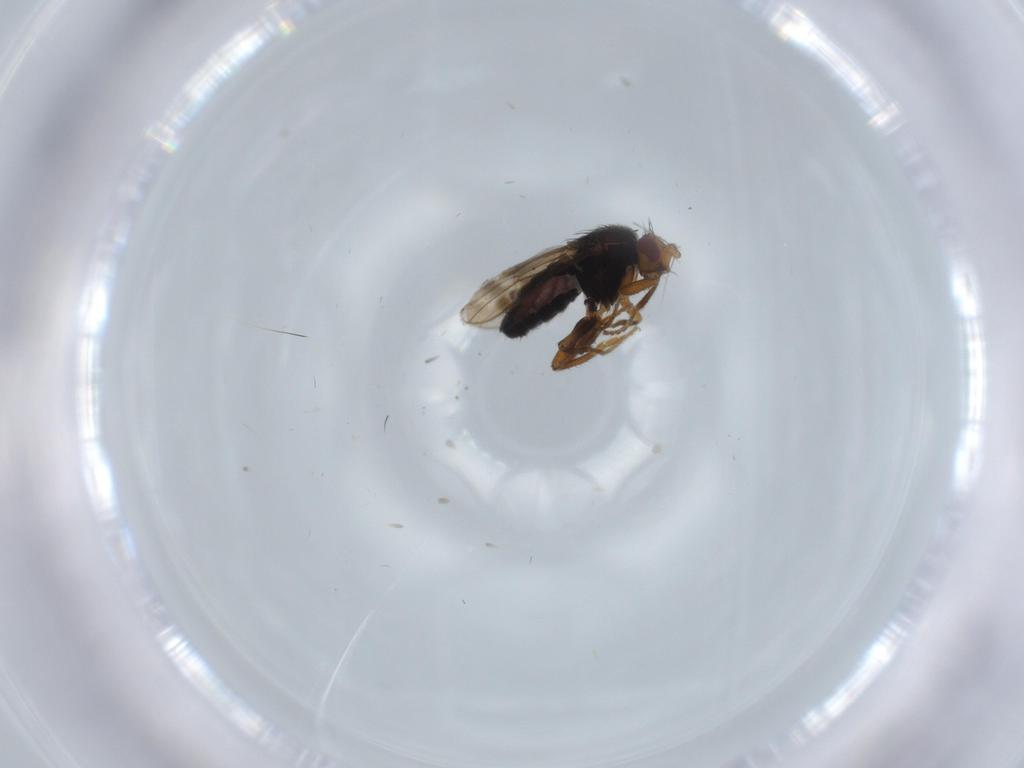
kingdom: Animalia
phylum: Arthropoda
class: Insecta
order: Diptera
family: Sphaeroceridae
